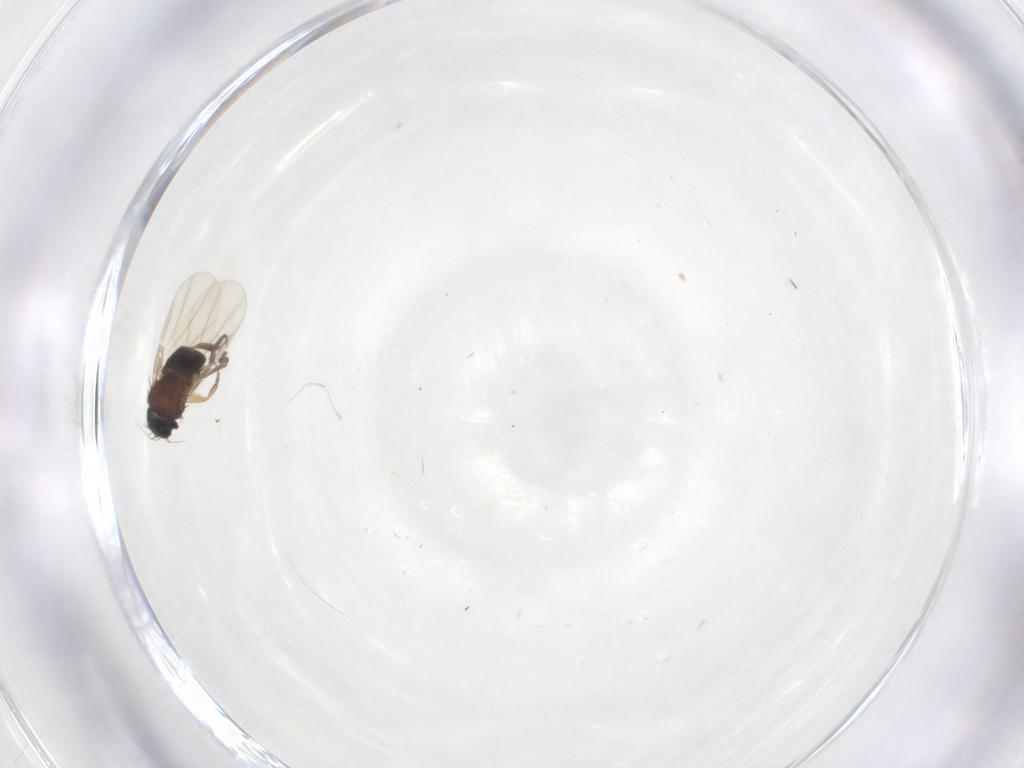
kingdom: Animalia
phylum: Arthropoda
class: Insecta
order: Diptera
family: Phoridae
